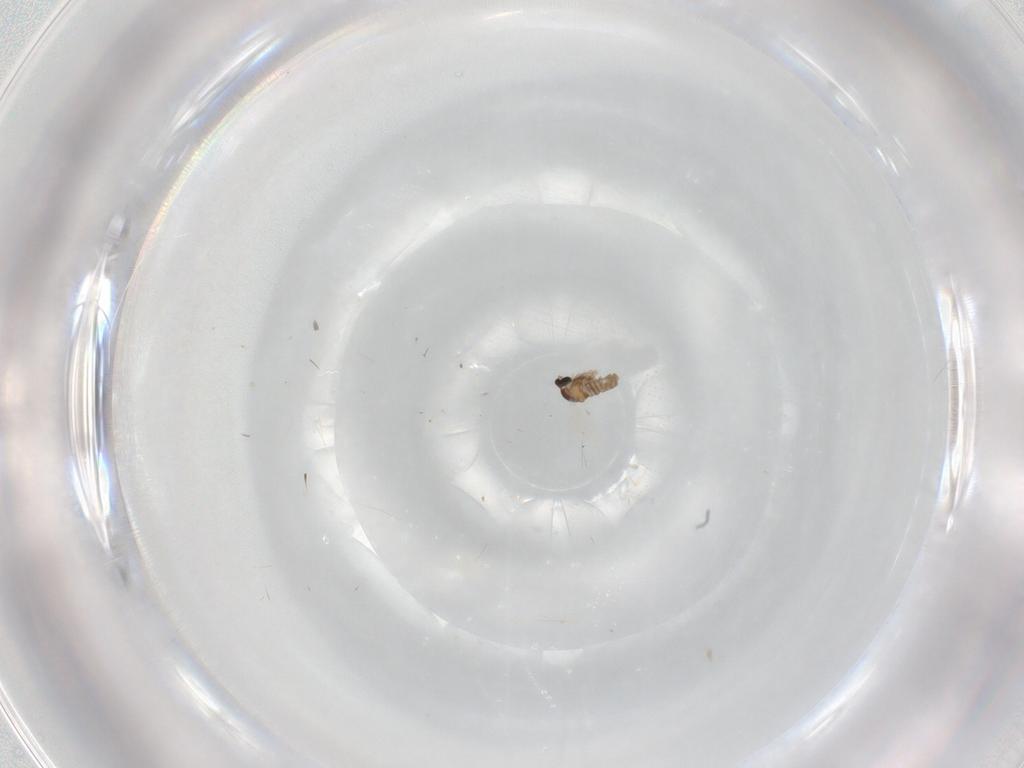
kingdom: Animalia
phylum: Arthropoda
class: Insecta
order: Diptera
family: Cecidomyiidae
